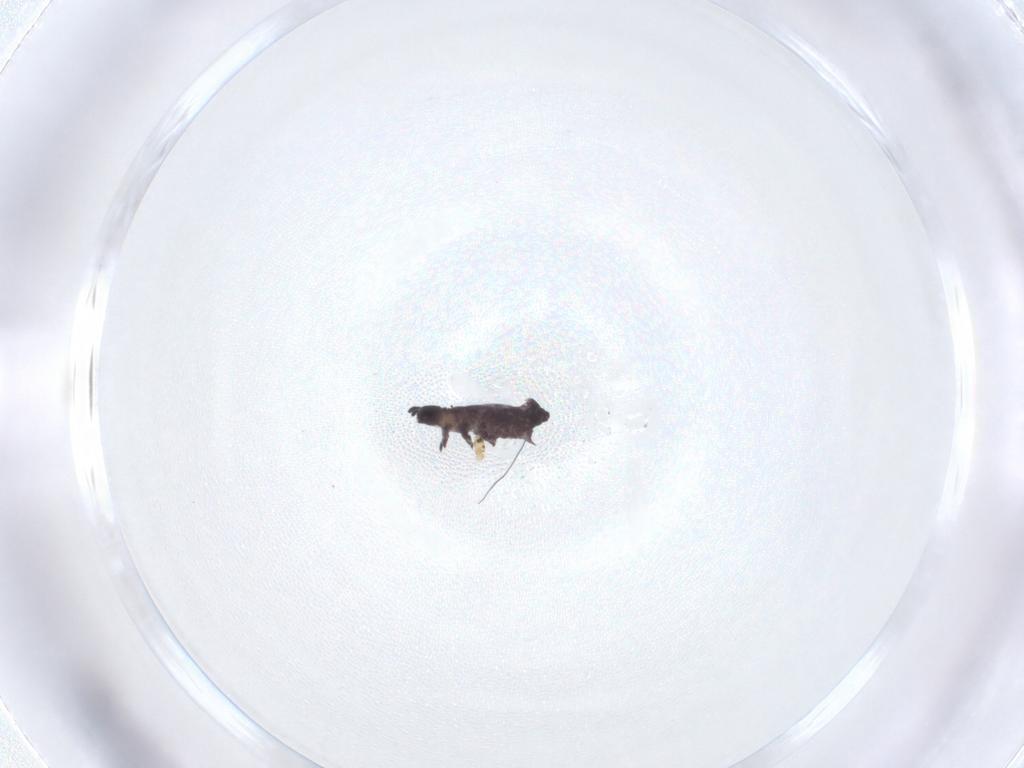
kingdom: Animalia
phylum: Arthropoda
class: Collembola
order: Poduromorpha
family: Hypogastruridae
